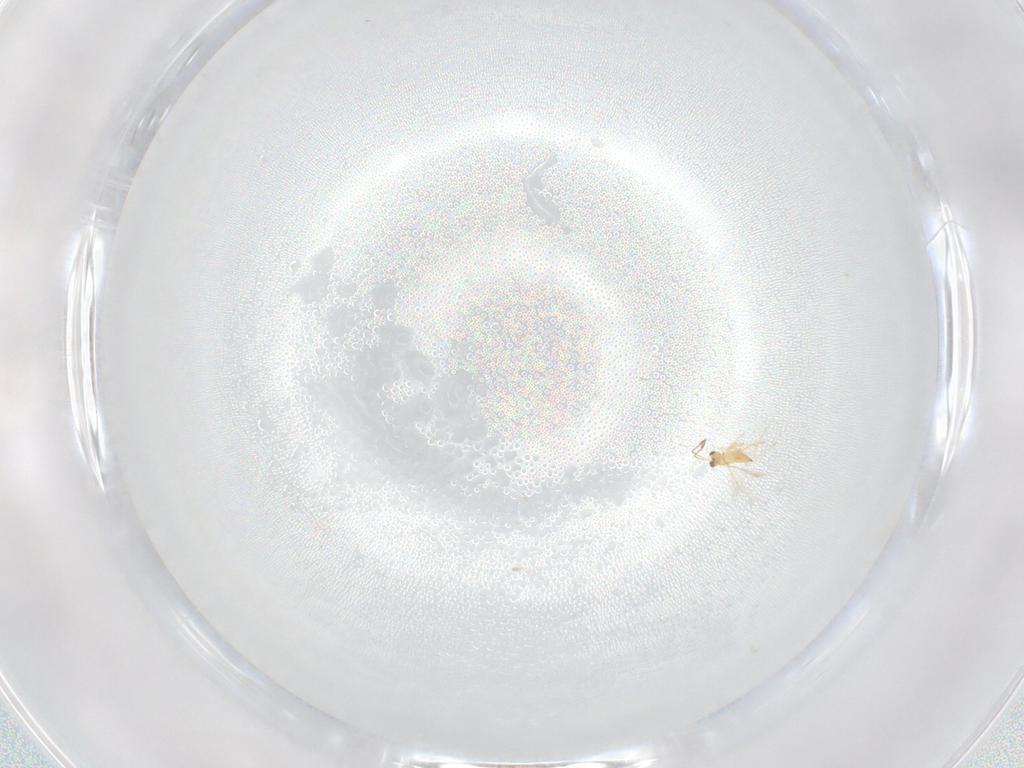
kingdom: Animalia
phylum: Arthropoda
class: Insecta
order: Hymenoptera
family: Mymaridae
